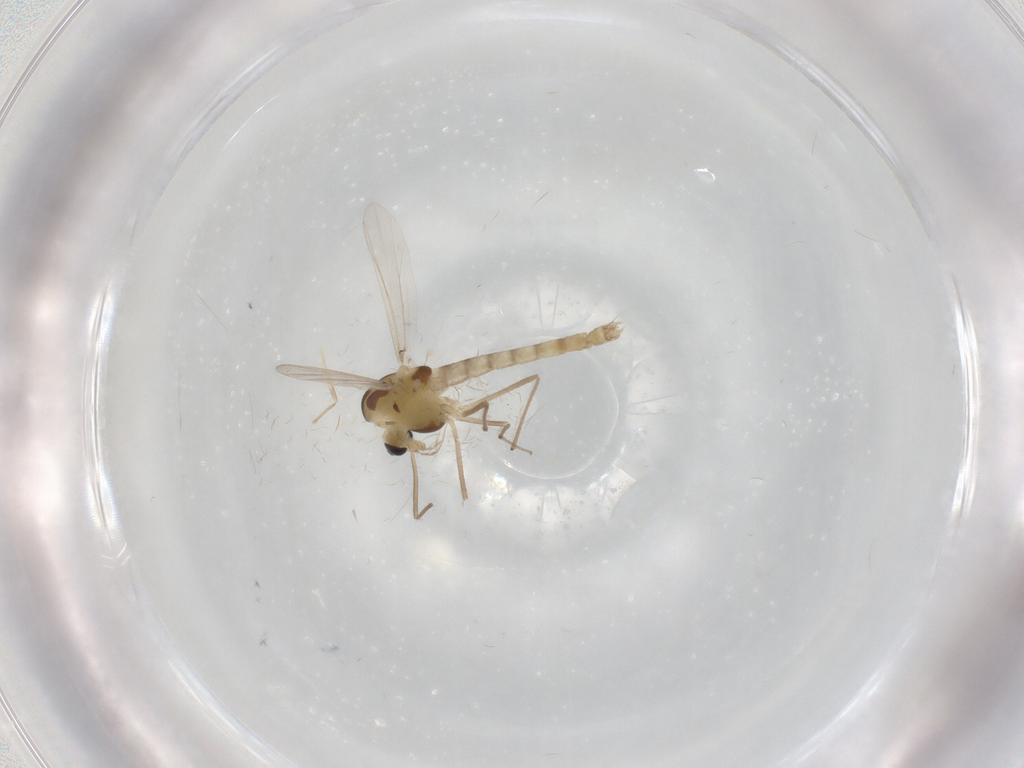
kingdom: Animalia
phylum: Arthropoda
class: Insecta
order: Diptera
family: Chironomidae
